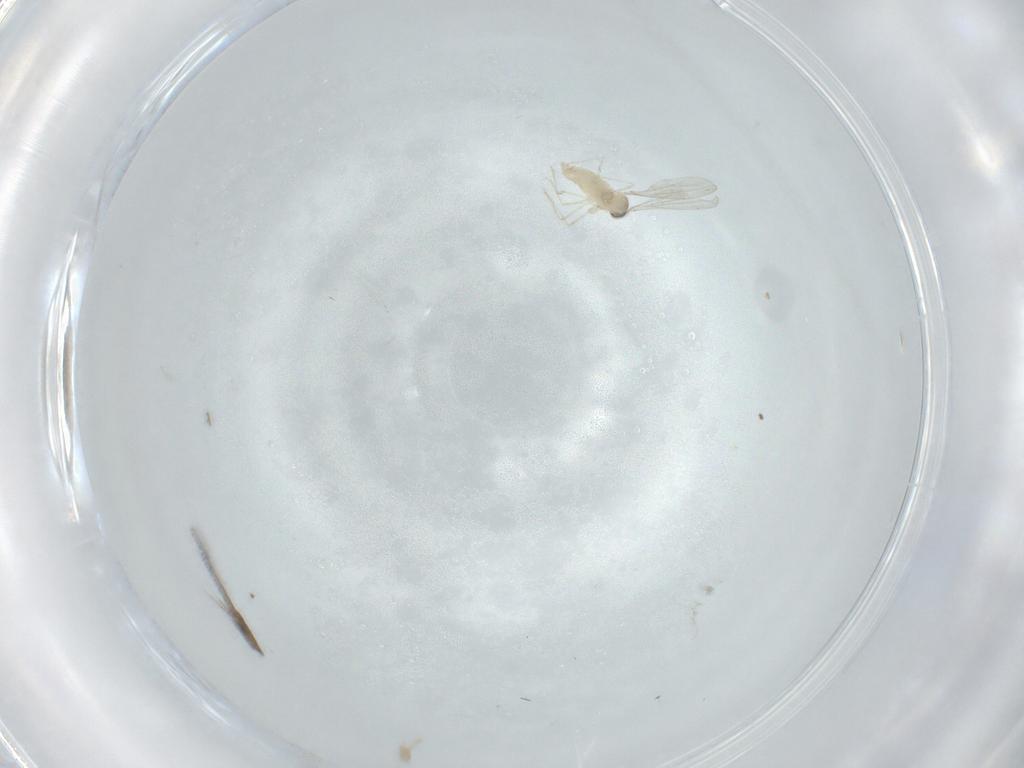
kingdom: Animalia
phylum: Arthropoda
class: Insecta
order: Diptera
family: Cecidomyiidae
